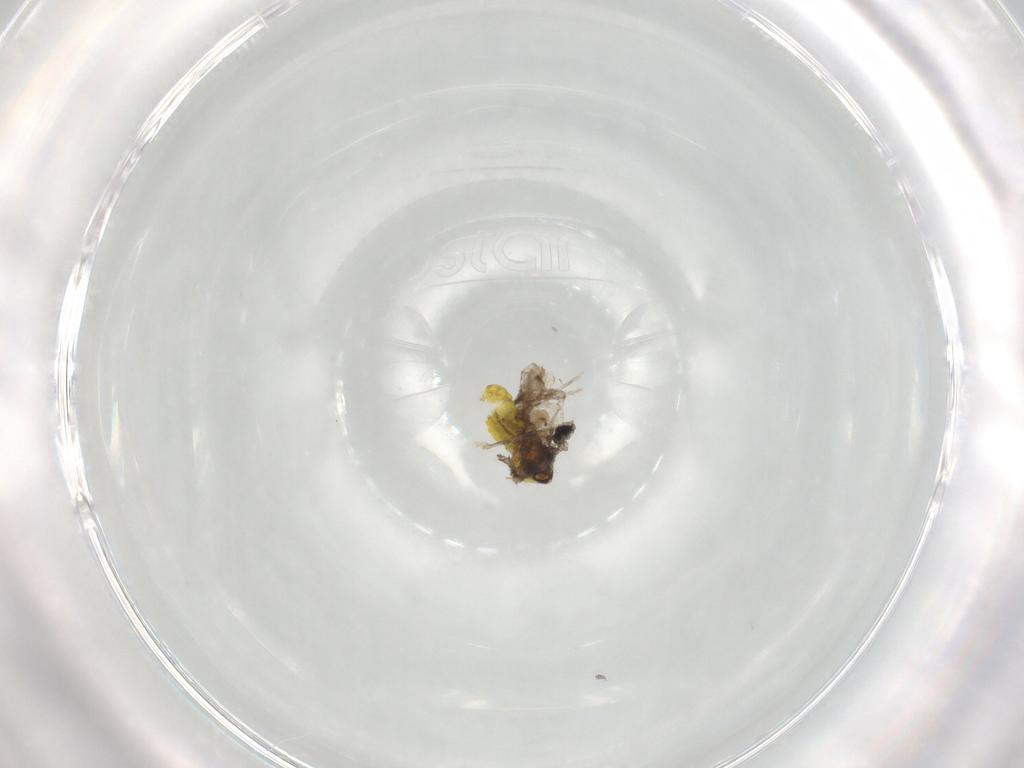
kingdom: Animalia
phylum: Arthropoda
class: Insecta
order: Diptera
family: Ceratopogonidae
